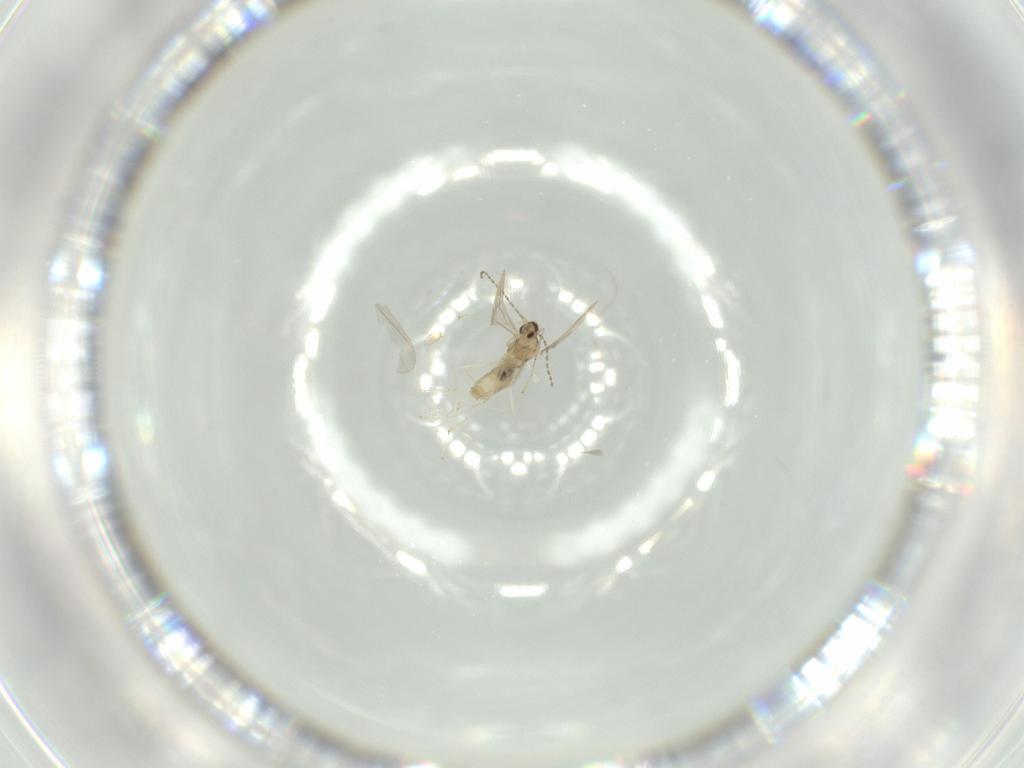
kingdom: Animalia
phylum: Arthropoda
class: Insecta
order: Diptera
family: Cecidomyiidae
